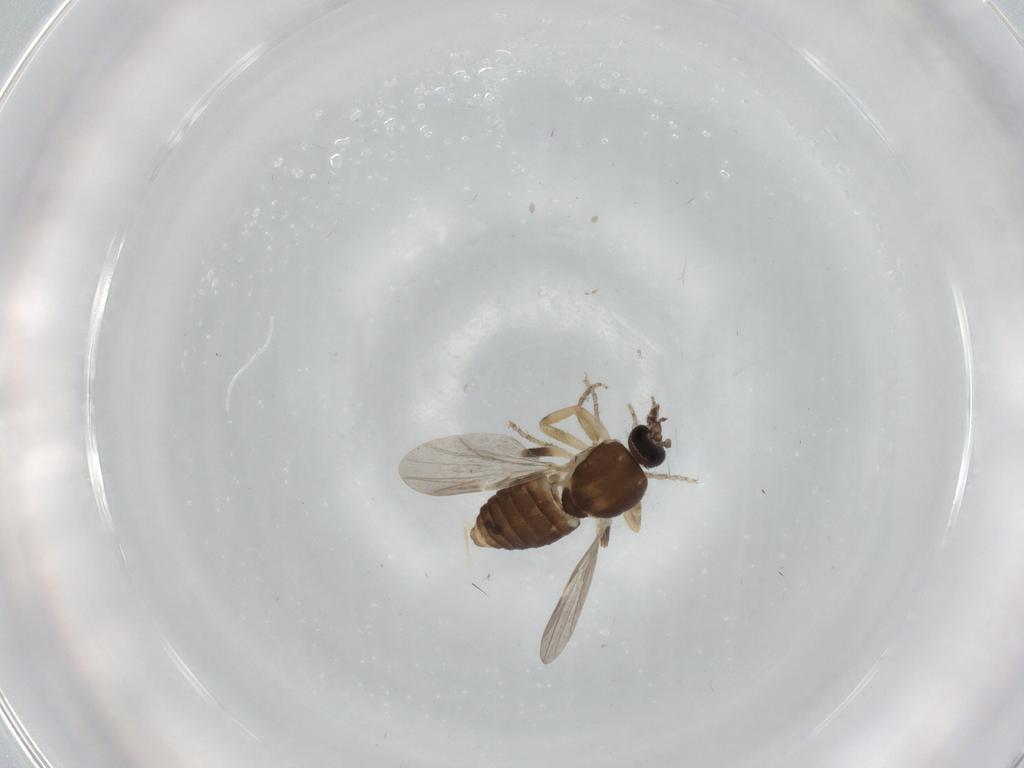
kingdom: Animalia
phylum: Arthropoda
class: Insecta
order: Diptera
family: Ceratopogonidae
